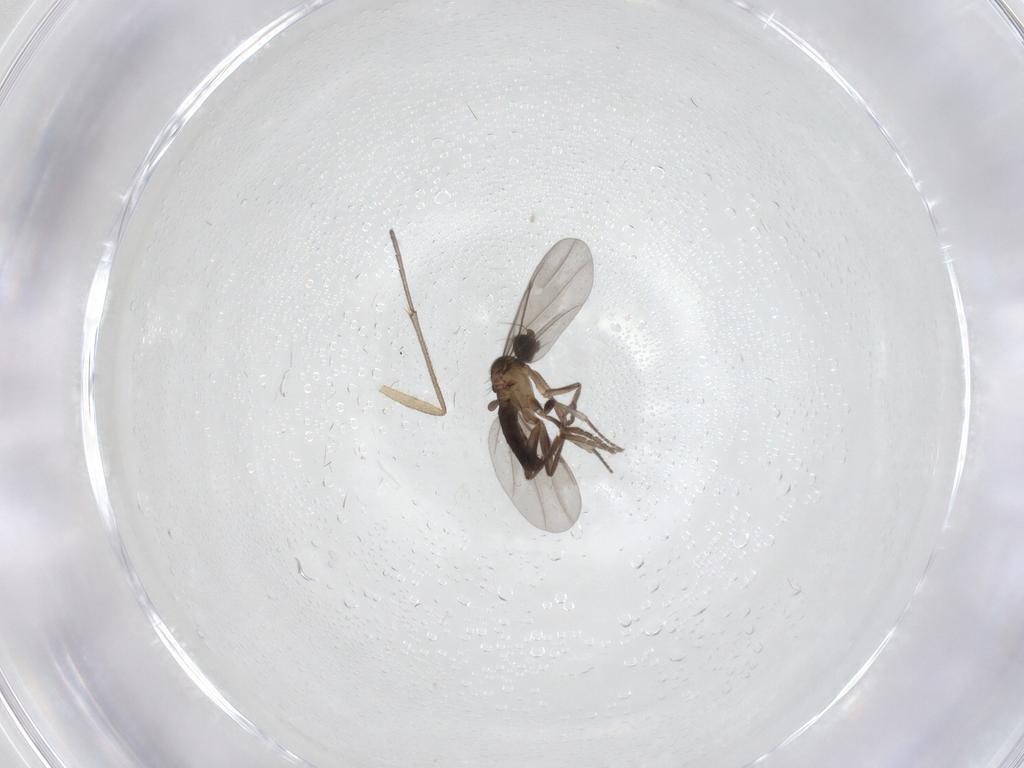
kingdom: Animalia
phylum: Arthropoda
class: Insecta
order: Diptera
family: Phoridae
